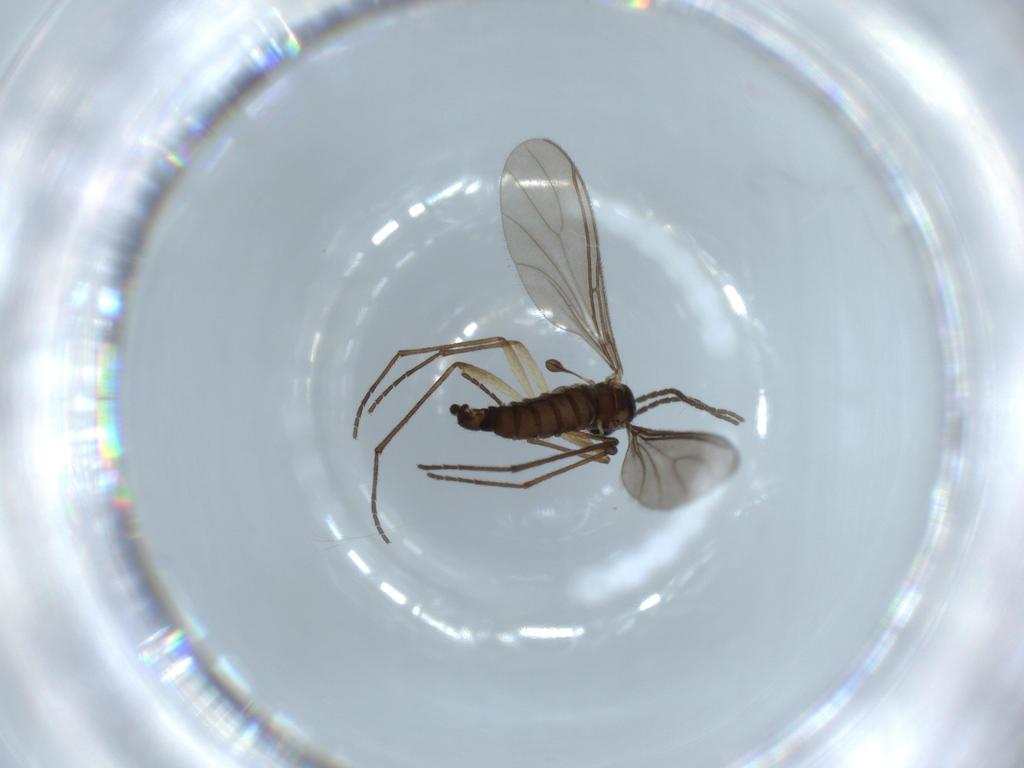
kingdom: Animalia
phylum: Arthropoda
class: Insecta
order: Diptera
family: Sciaridae
